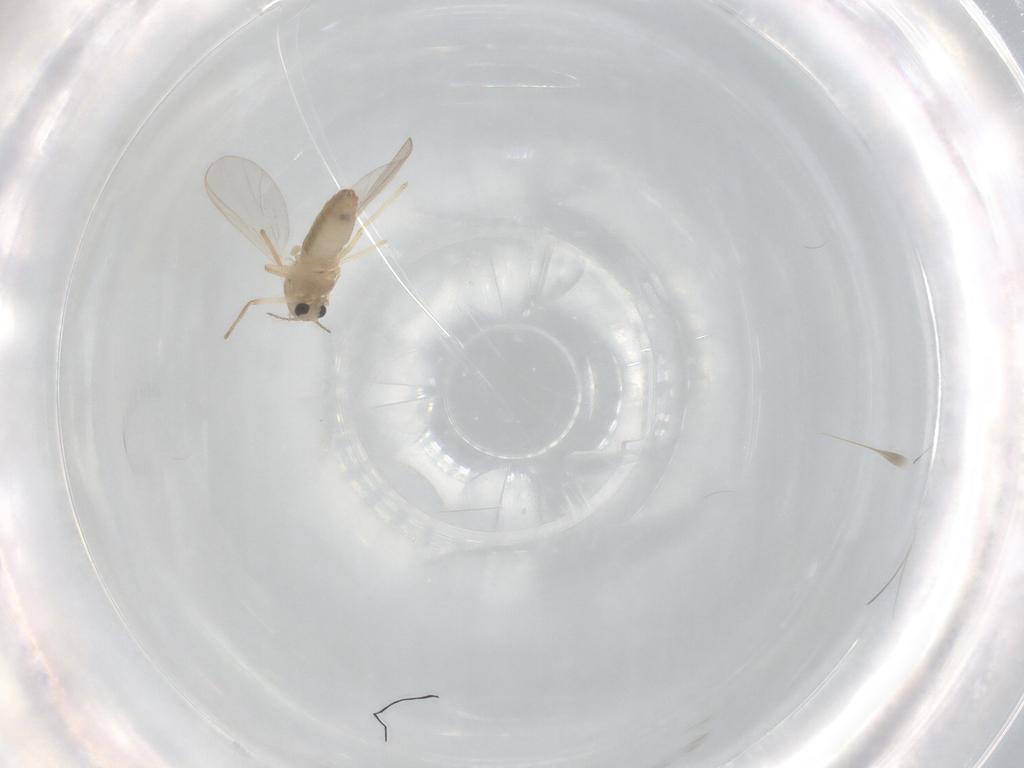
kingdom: Animalia
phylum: Arthropoda
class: Insecta
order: Diptera
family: Chironomidae
